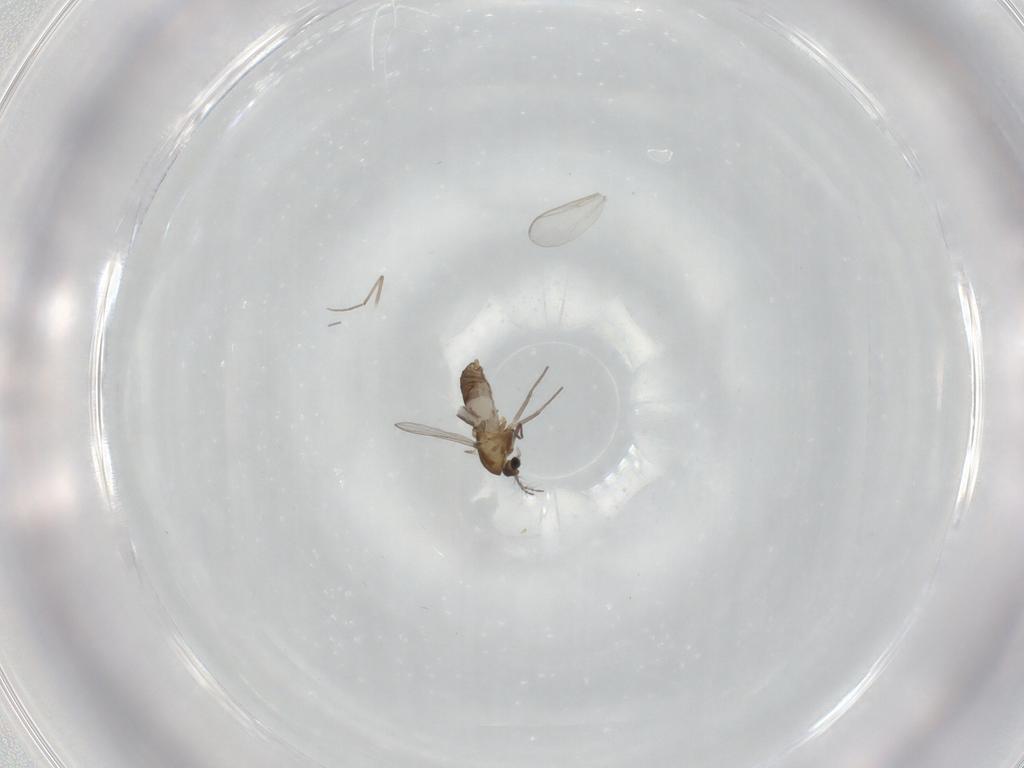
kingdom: Animalia
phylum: Arthropoda
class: Insecta
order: Diptera
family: Chironomidae
